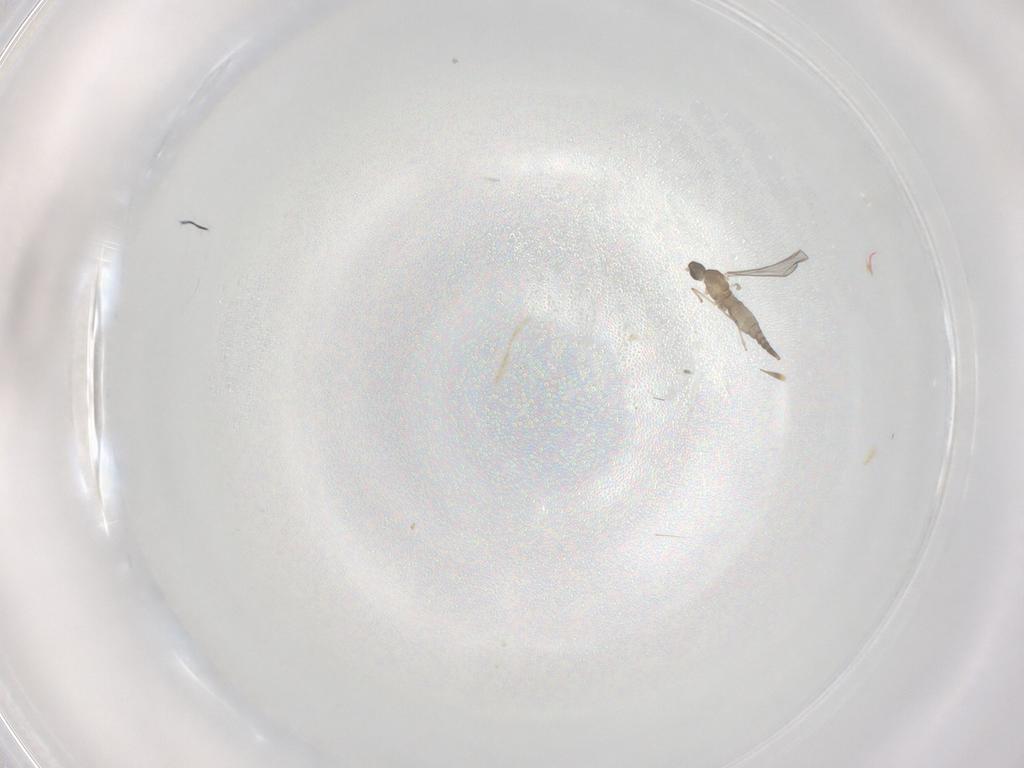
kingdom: Animalia
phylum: Arthropoda
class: Insecta
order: Diptera
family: Cecidomyiidae
